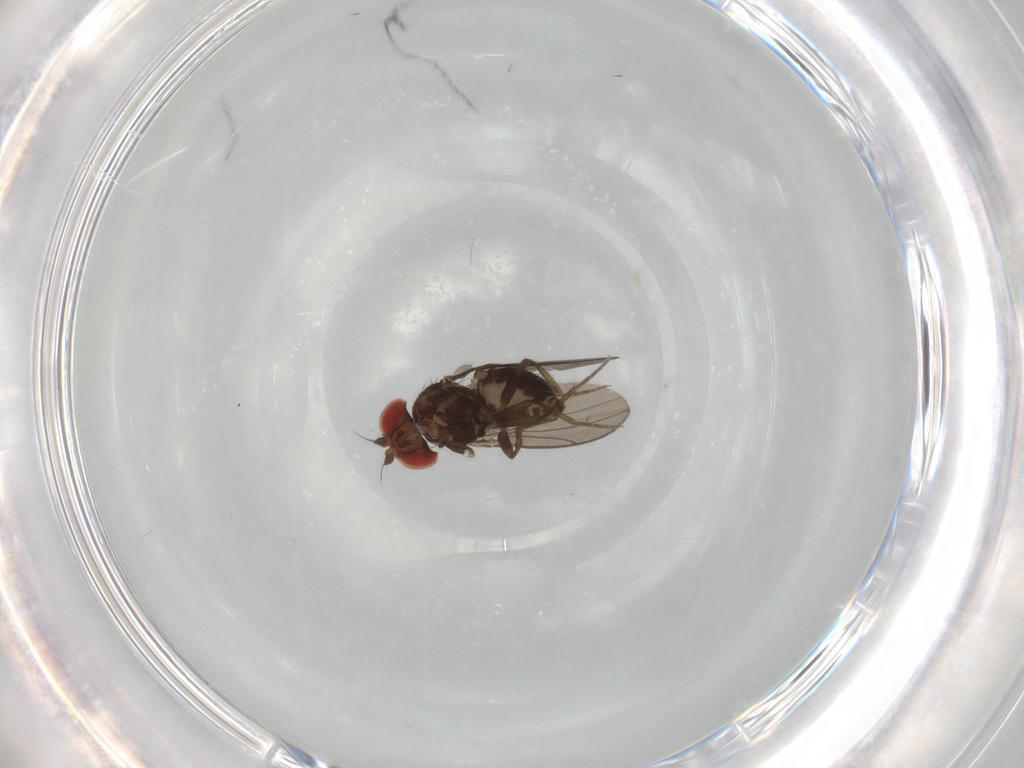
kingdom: Animalia
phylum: Arthropoda
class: Insecta
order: Diptera
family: Drosophilidae
